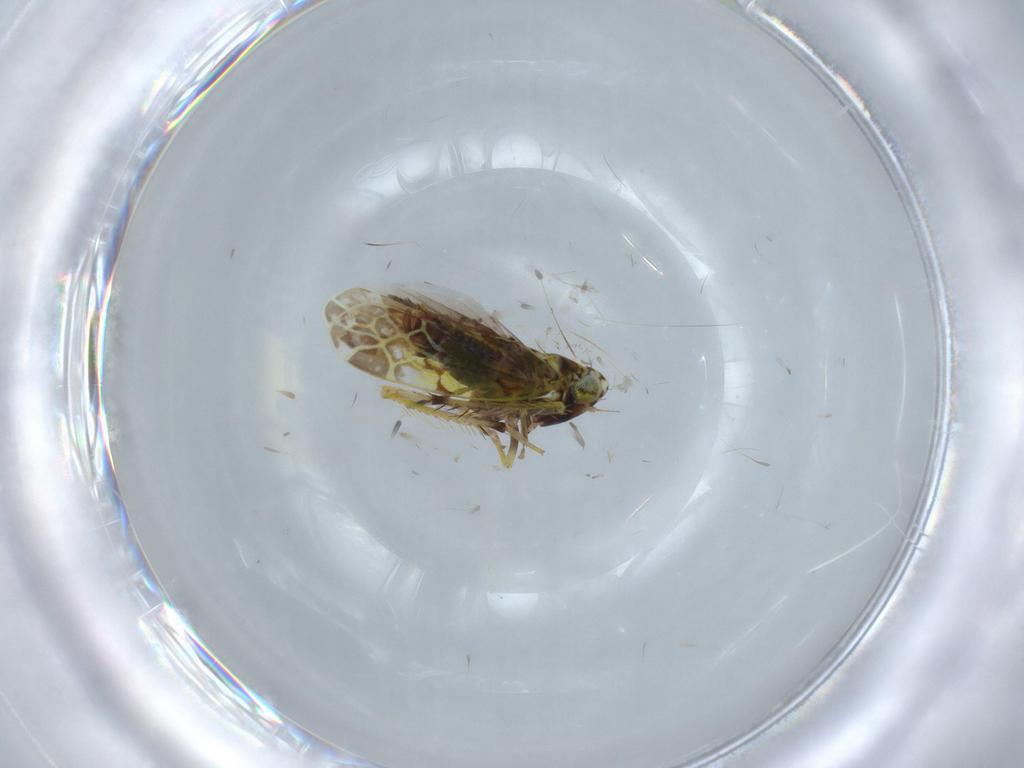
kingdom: Animalia
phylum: Arthropoda
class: Insecta
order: Hemiptera
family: Cicadellidae
